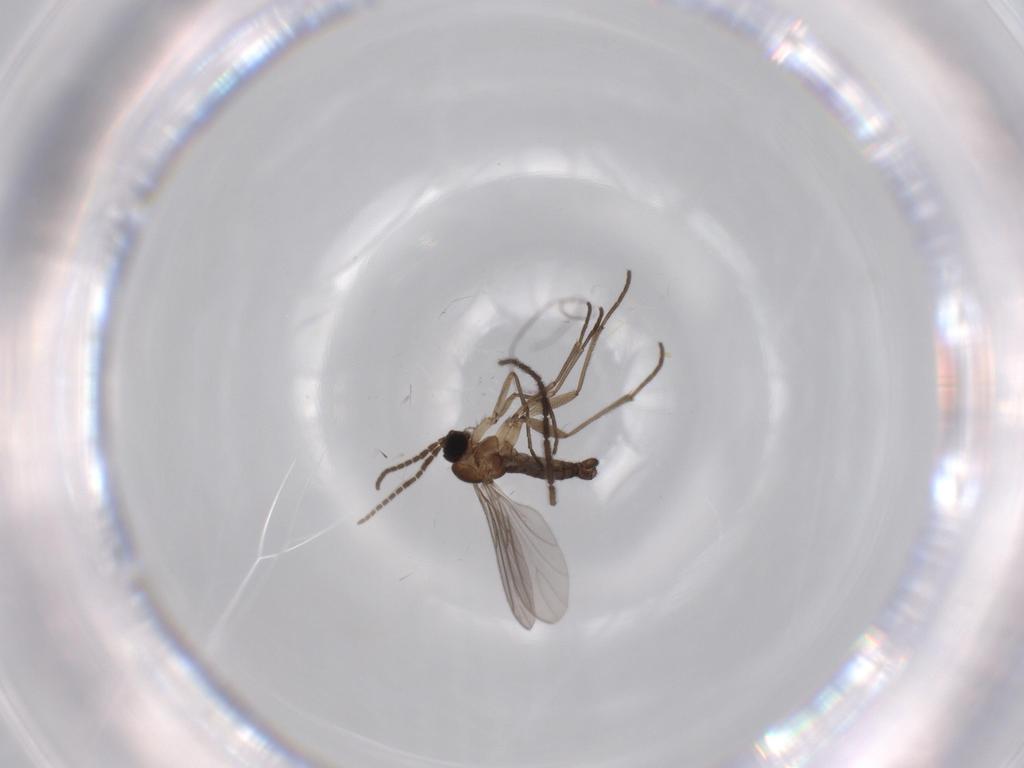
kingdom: Animalia
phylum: Arthropoda
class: Insecta
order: Diptera
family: Sciaridae
